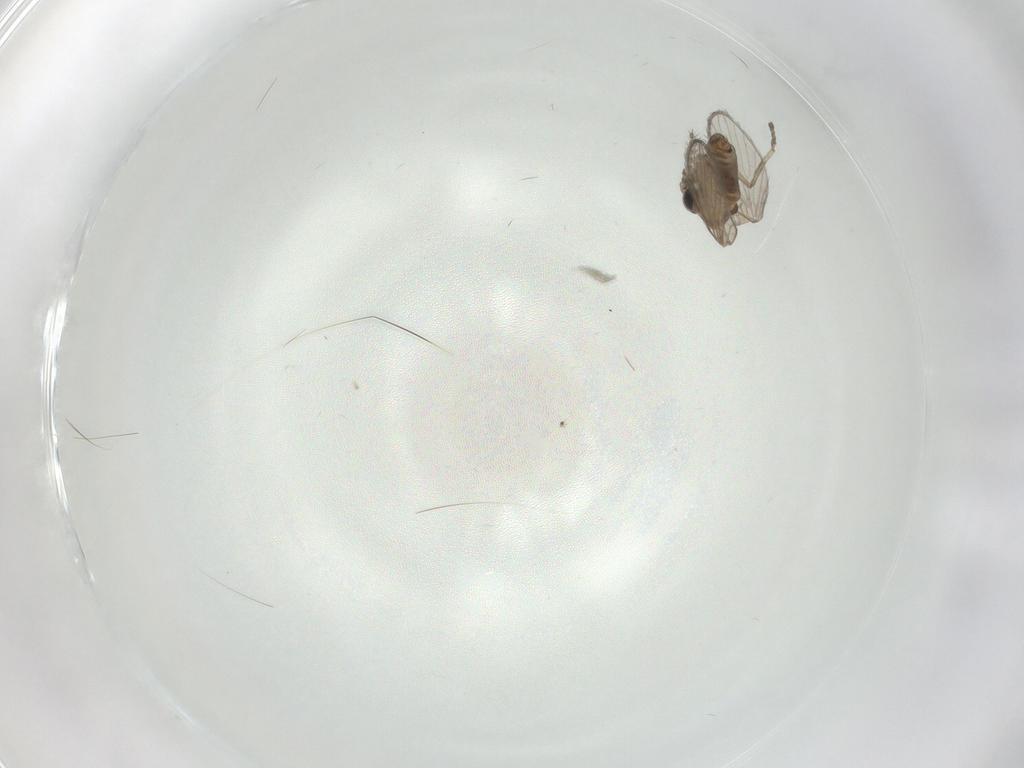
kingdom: Animalia
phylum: Arthropoda
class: Insecta
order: Diptera
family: Psychodidae
